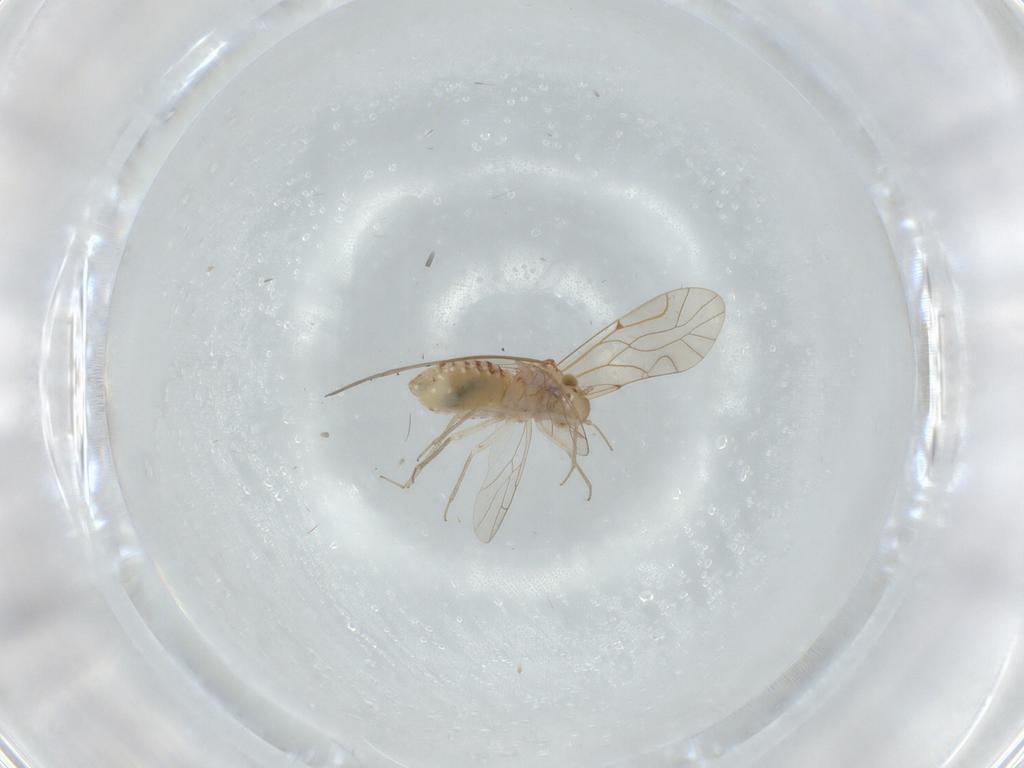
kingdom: Animalia
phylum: Arthropoda
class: Insecta
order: Psocodea
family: Lachesillidae
